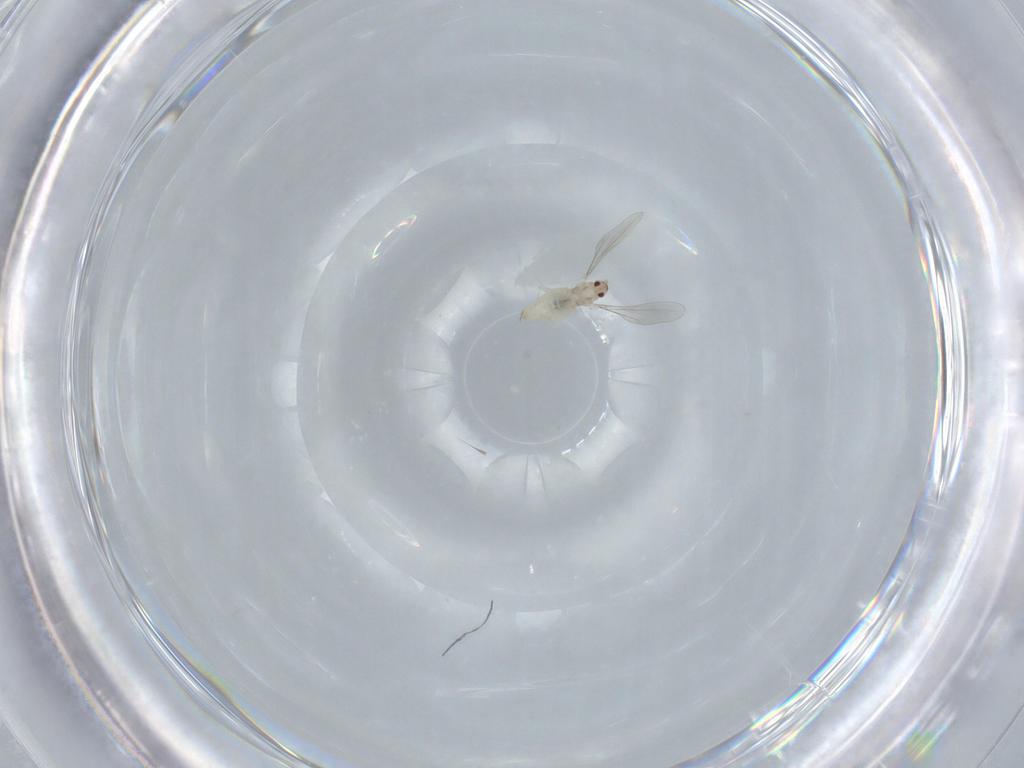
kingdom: Animalia
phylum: Arthropoda
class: Insecta
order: Diptera
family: Cecidomyiidae
